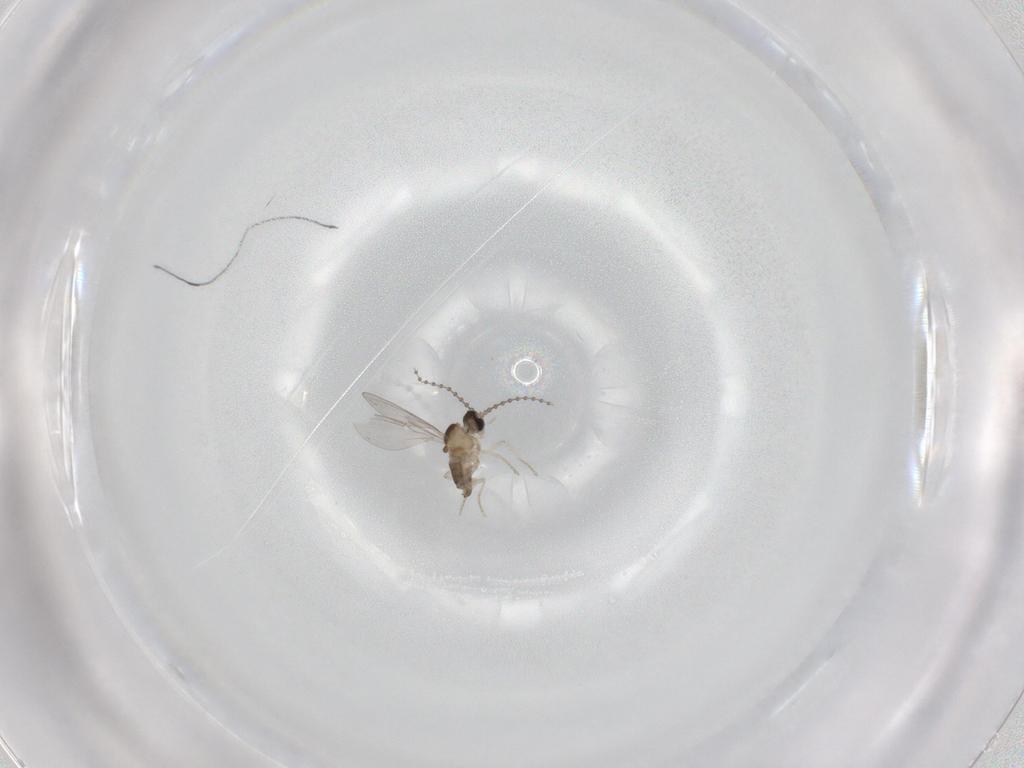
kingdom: Animalia
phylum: Arthropoda
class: Insecta
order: Diptera
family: Cecidomyiidae
